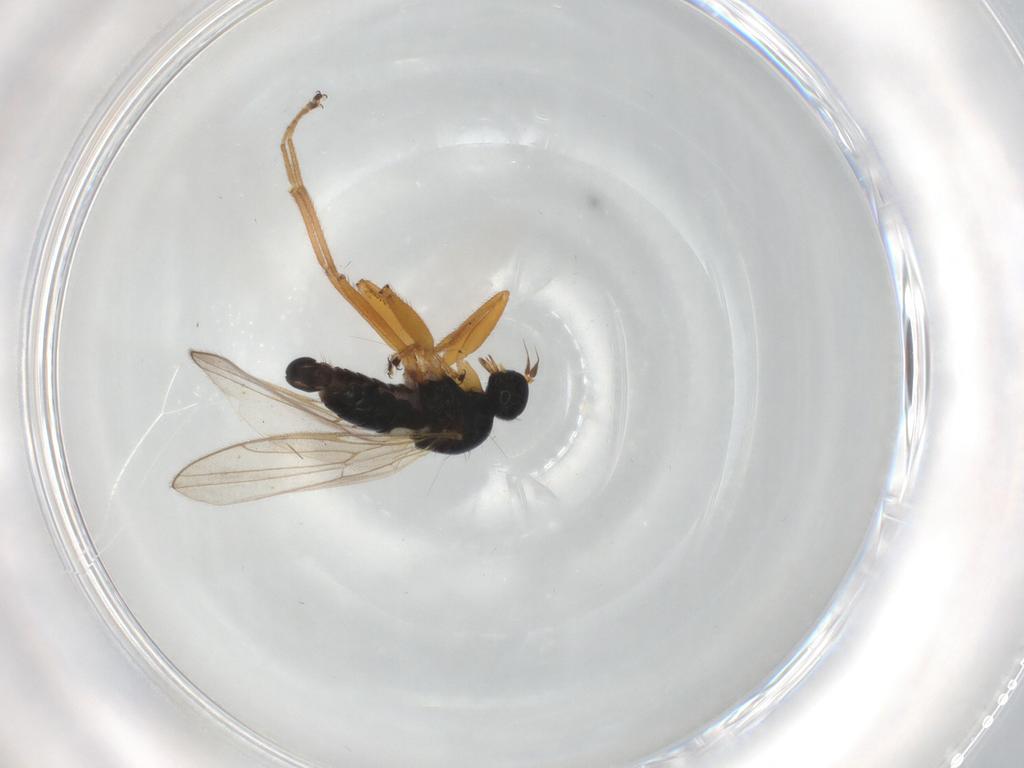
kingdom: Animalia
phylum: Arthropoda
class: Insecta
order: Diptera
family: Hybotidae
